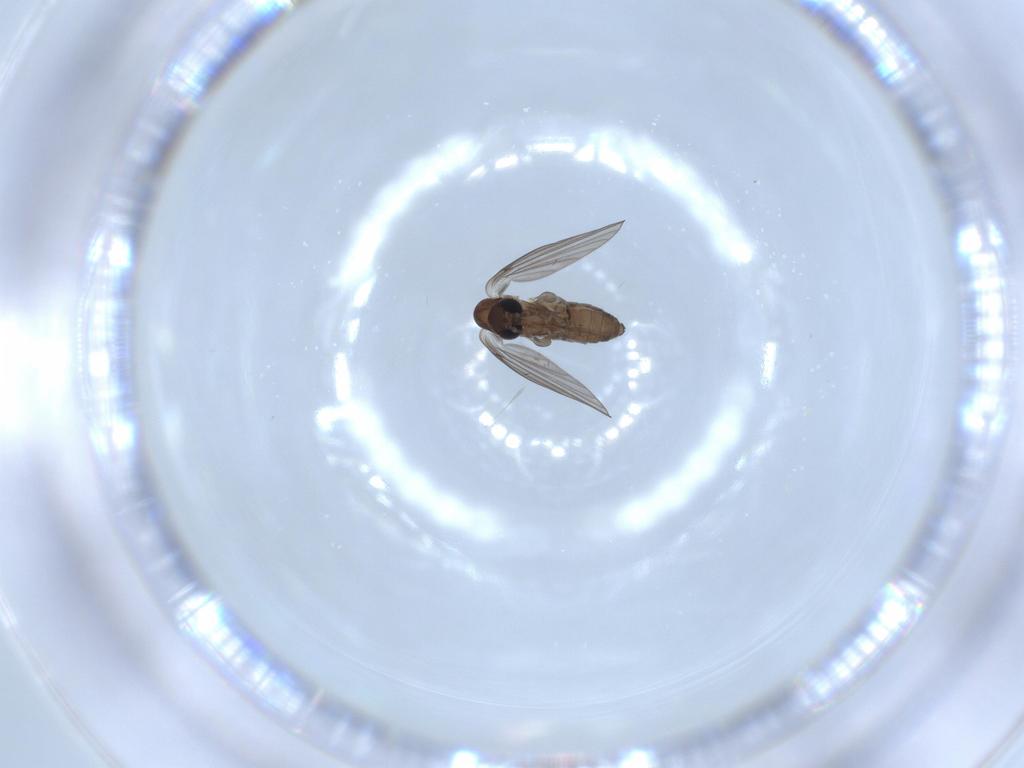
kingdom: Animalia
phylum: Arthropoda
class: Insecta
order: Diptera
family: Psychodidae
